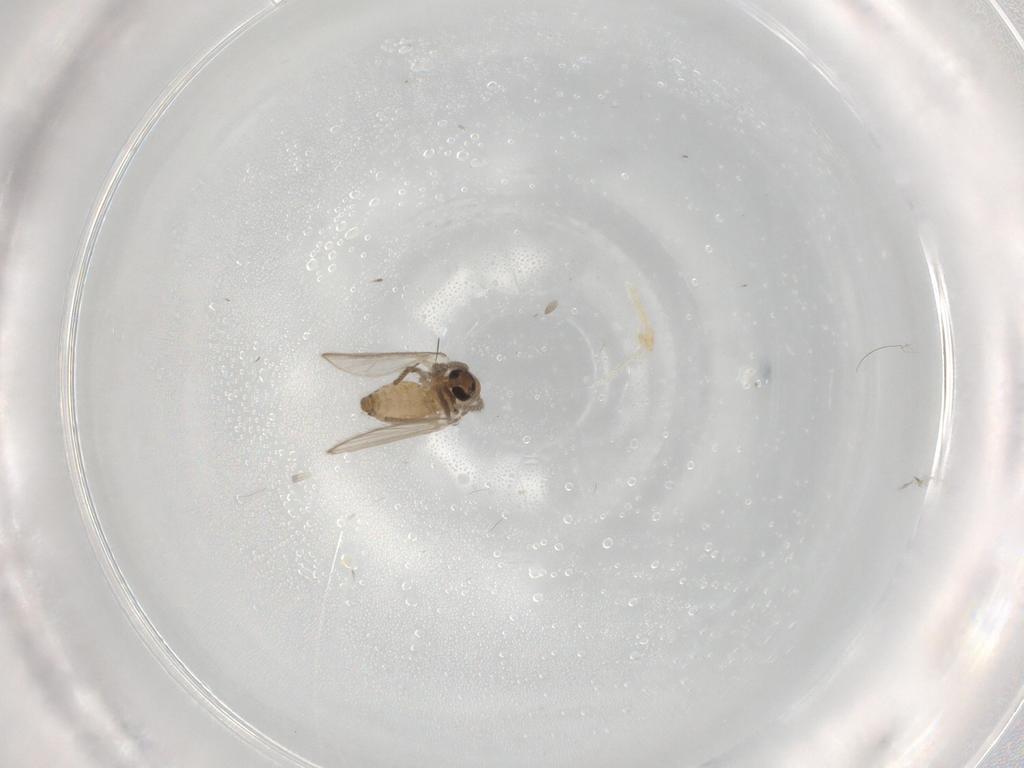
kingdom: Animalia
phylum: Arthropoda
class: Insecta
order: Diptera
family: Psychodidae
